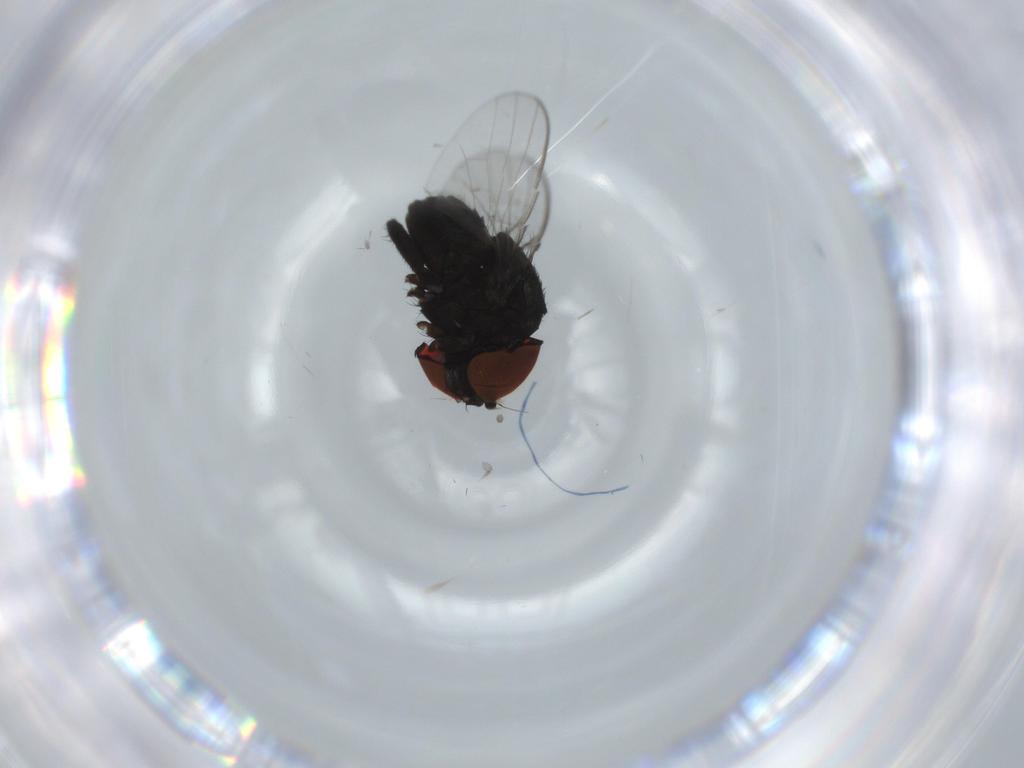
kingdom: Animalia
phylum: Arthropoda
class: Insecta
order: Diptera
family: Milichiidae
